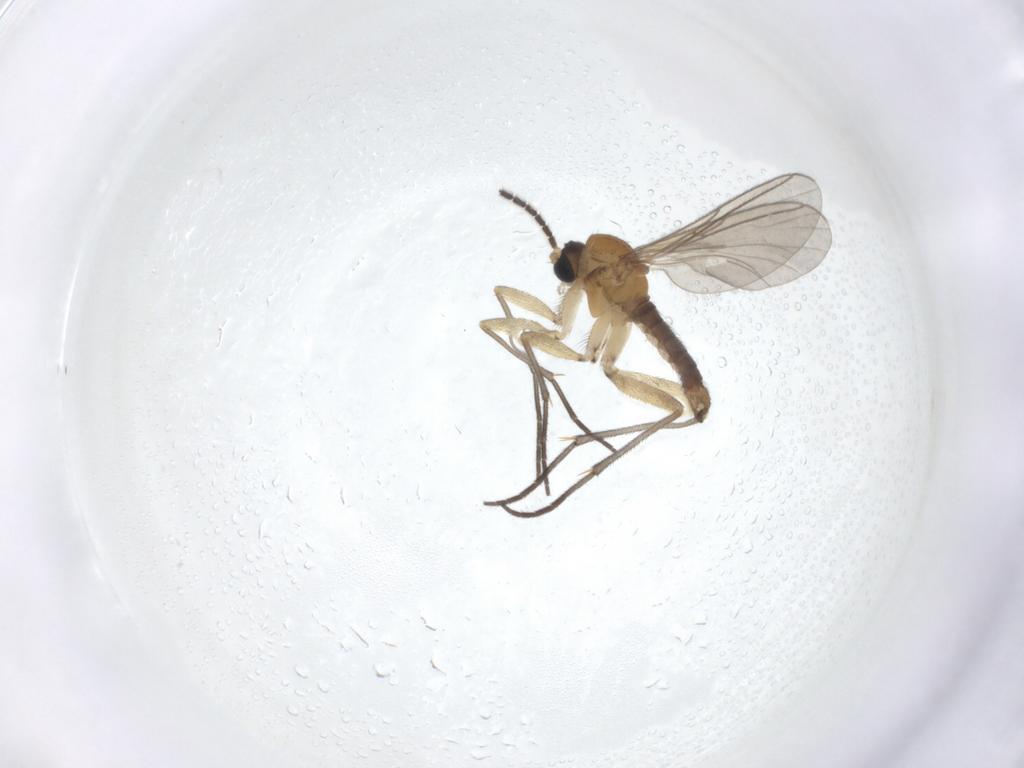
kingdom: Animalia
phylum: Arthropoda
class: Insecta
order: Diptera
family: Sciaridae
